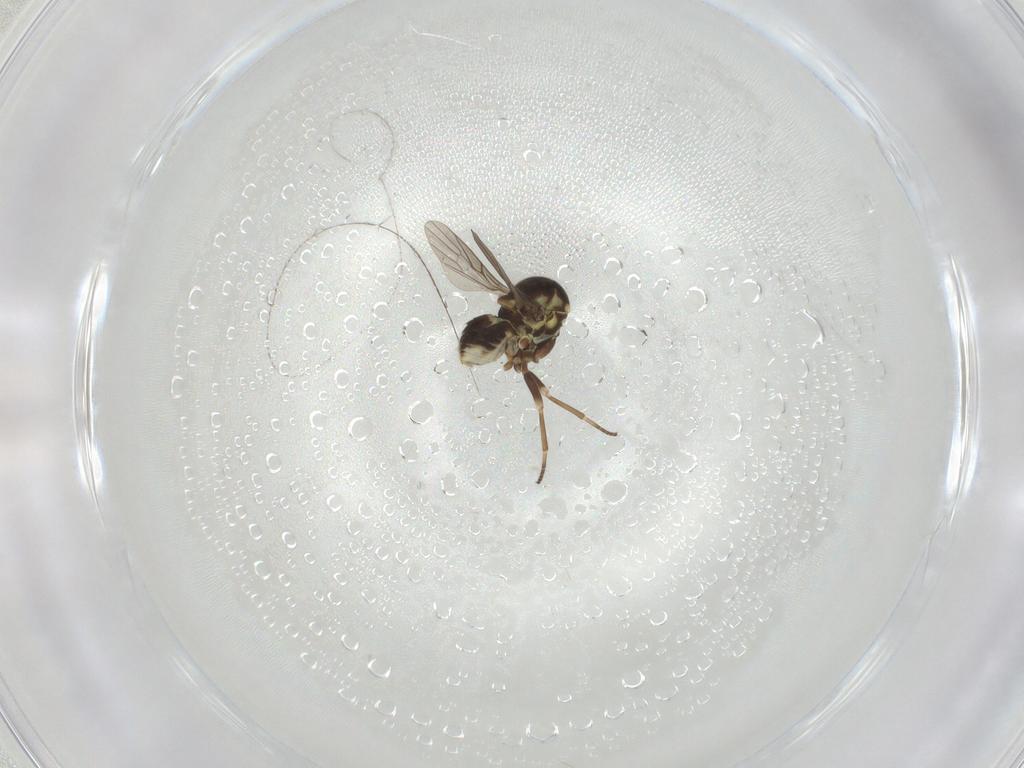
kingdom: Animalia
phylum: Arthropoda
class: Insecta
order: Diptera
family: Bombyliidae
